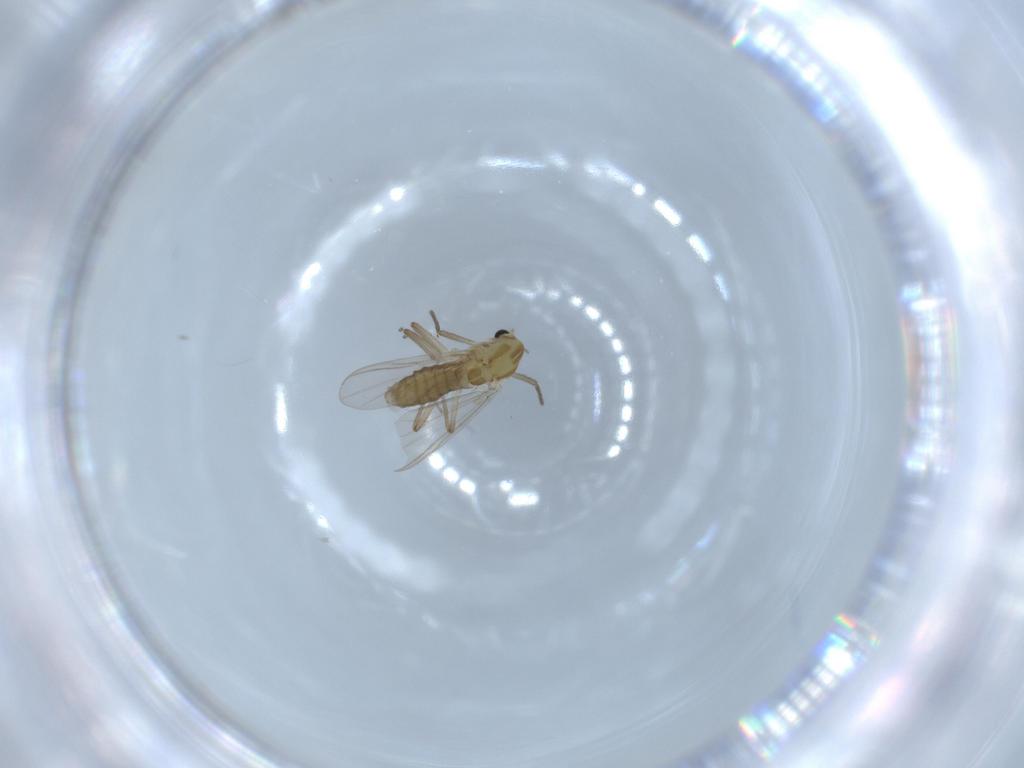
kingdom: Animalia
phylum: Arthropoda
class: Insecta
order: Diptera
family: Chironomidae
